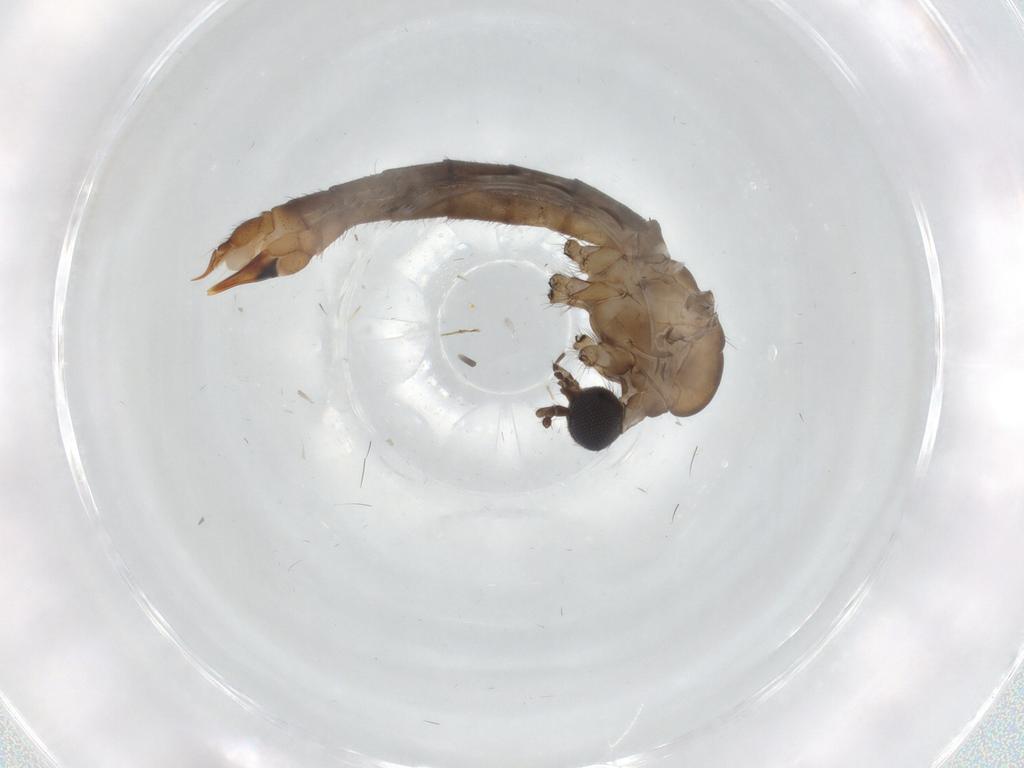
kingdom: Animalia
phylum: Arthropoda
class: Insecta
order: Diptera
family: Limoniidae
